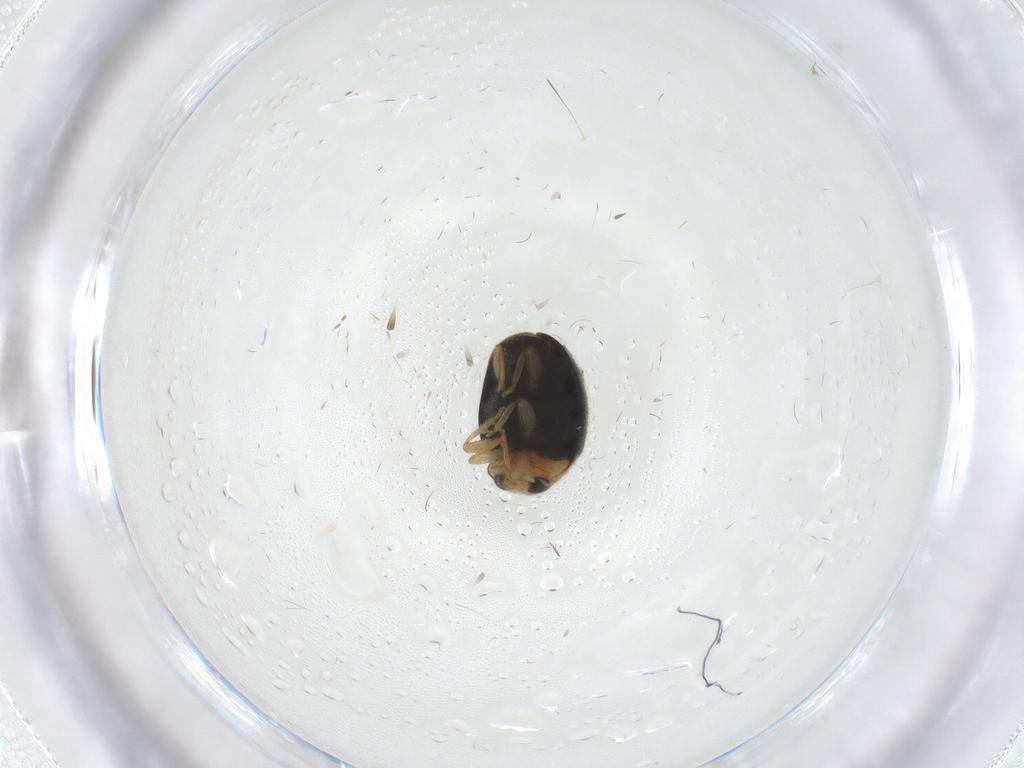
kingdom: Animalia
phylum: Arthropoda
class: Insecta
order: Coleoptera
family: Coccinellidae
